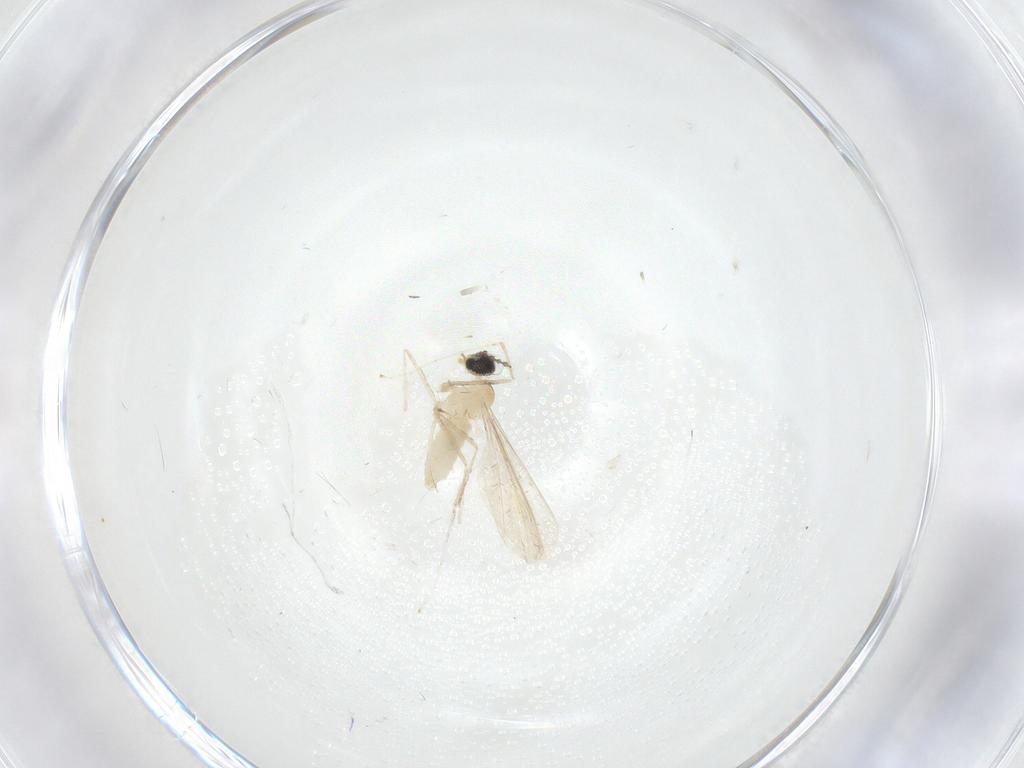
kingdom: Animalia
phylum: Arthropoda
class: Insecta
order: Diptera
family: Cecidomyiidae
